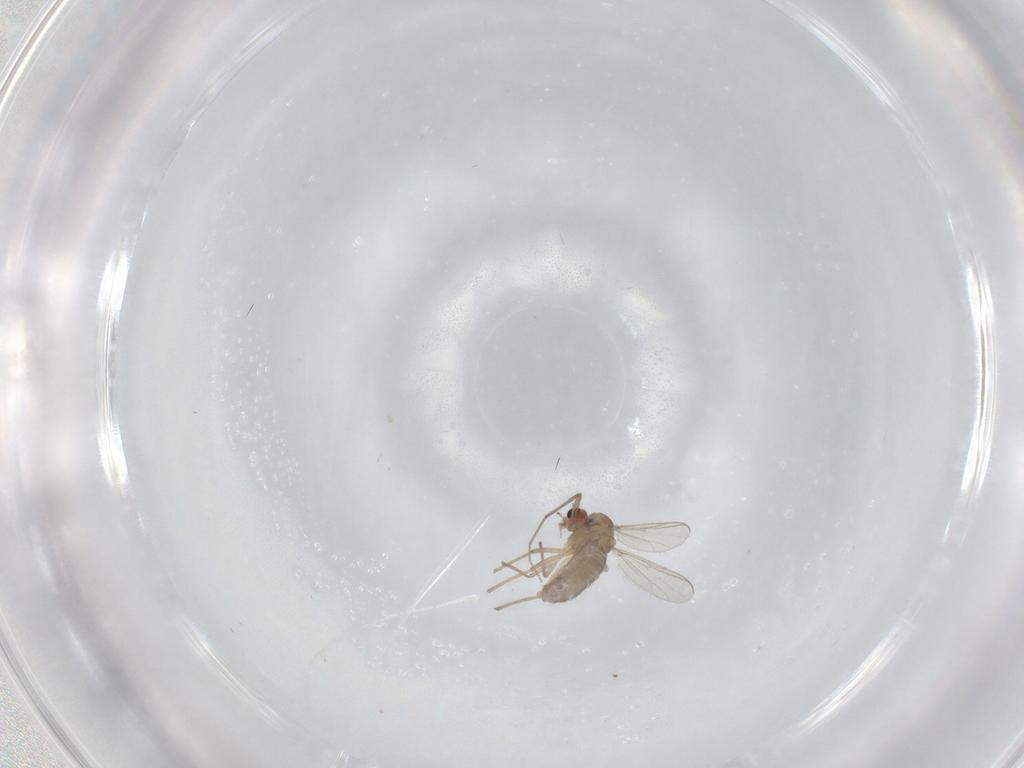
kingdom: Animalia
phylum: Arthropoda
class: Insecta
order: Diptera
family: Chironomidae
